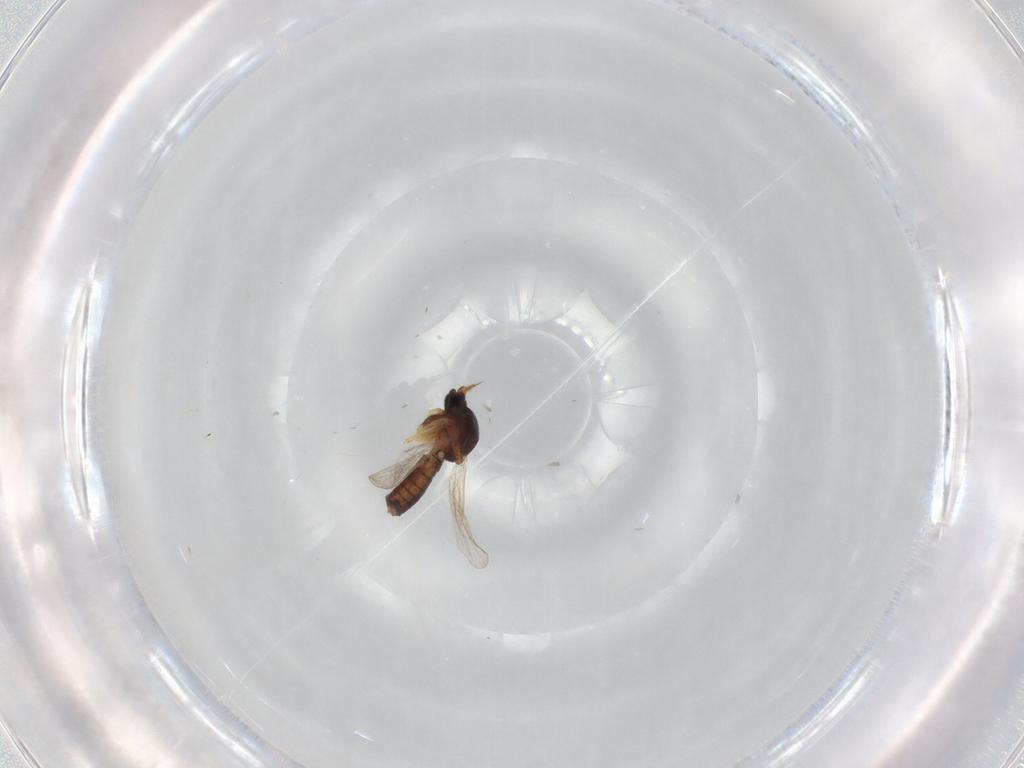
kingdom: Animalia
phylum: Arthropoda
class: Insecta
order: Diptera
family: Ceratopogonidae
